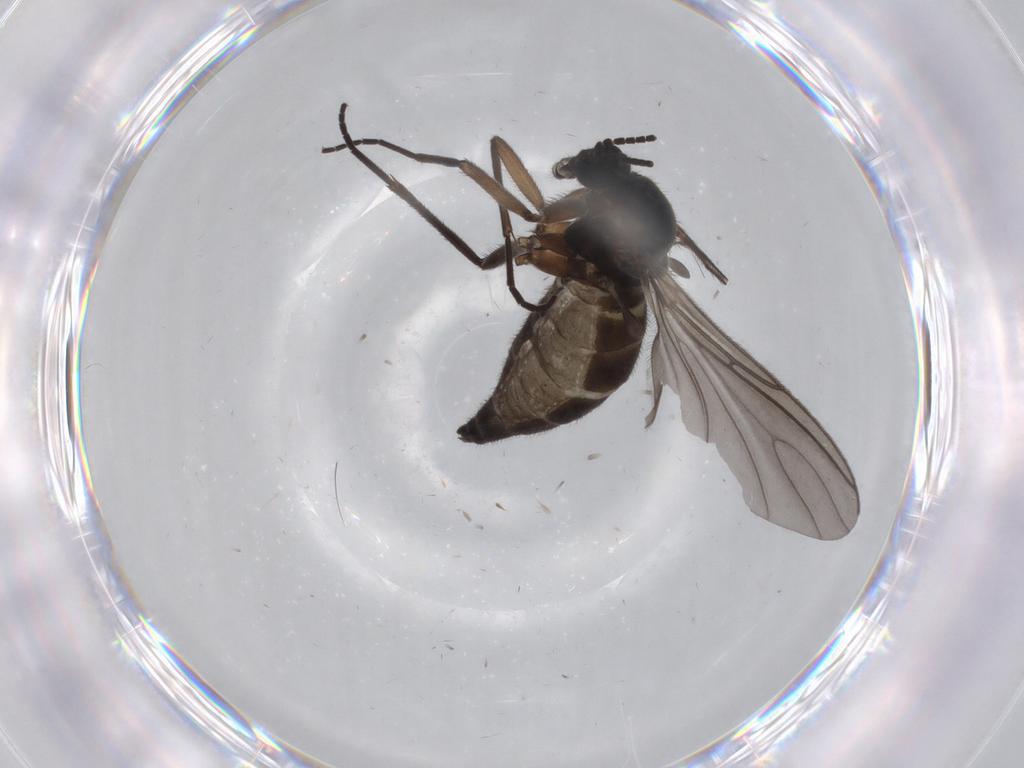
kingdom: Animalia
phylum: Arthropoda
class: Insecta
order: Diptera
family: Sciaridae
